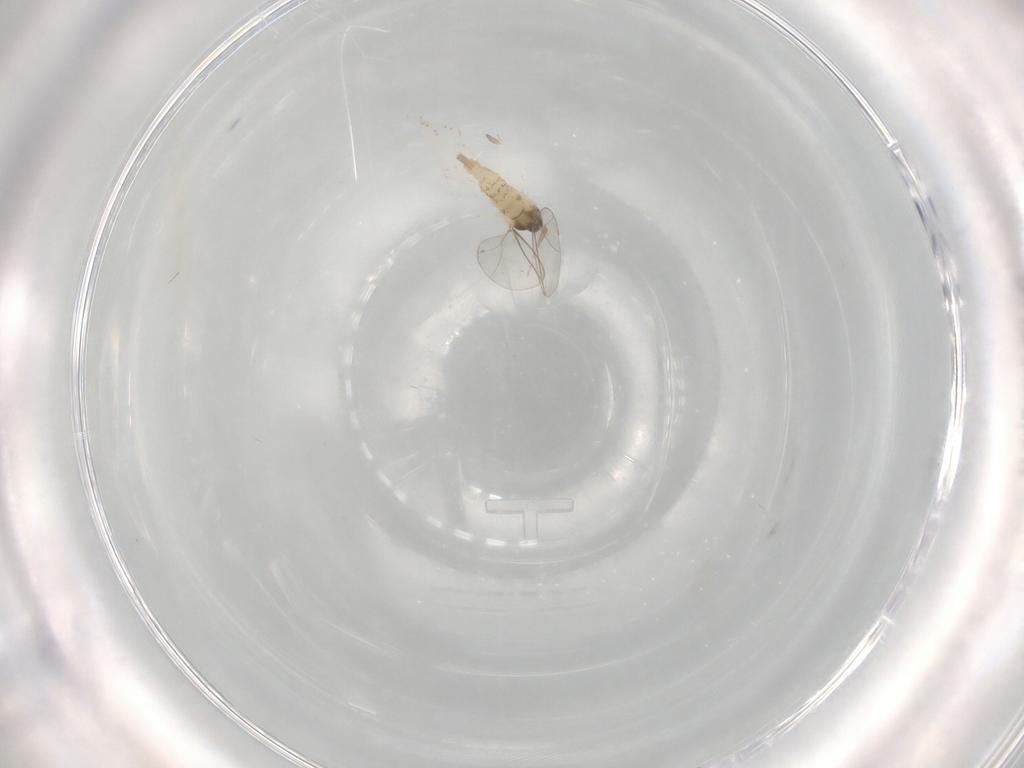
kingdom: Animalia
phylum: Arthropoda
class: Insecta
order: Diptera
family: Cecidomyiidae
